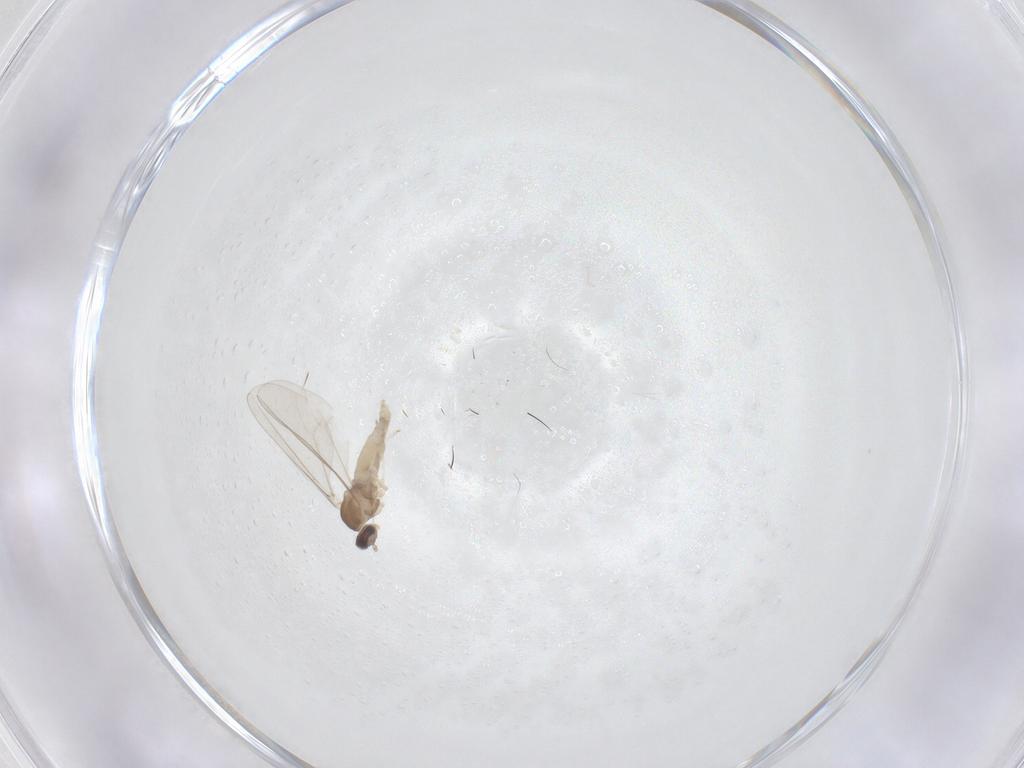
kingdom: Animalia
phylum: Arthropoda
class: Insecta
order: Diptera
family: Cecidomyiidae
